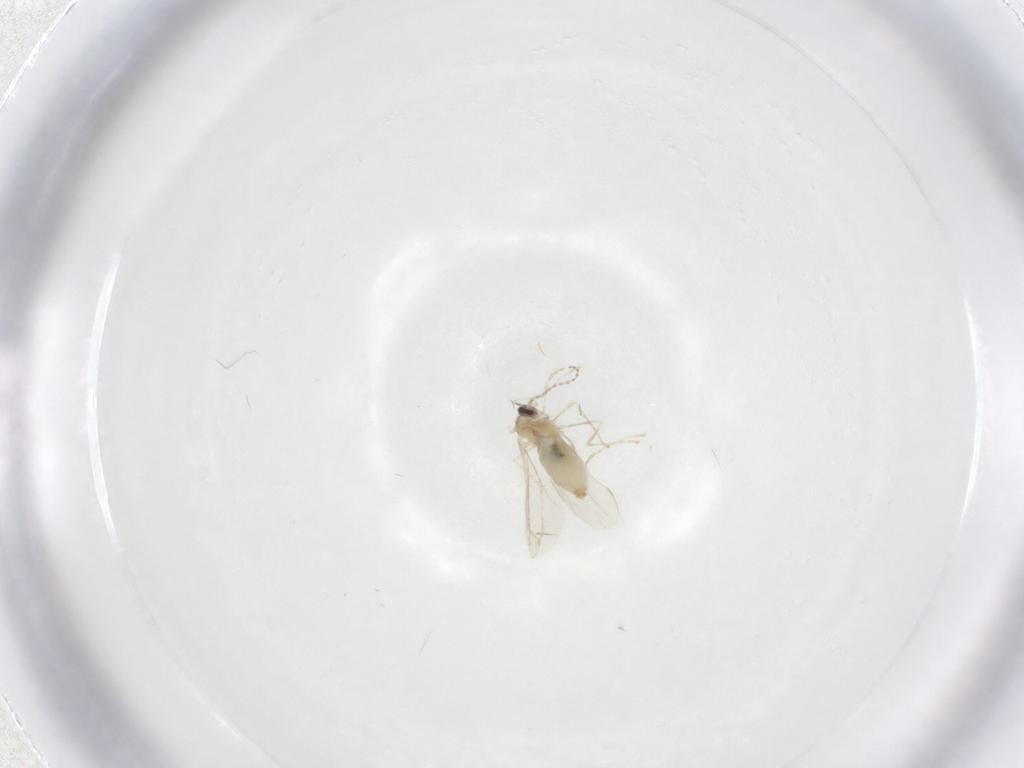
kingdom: Animalia
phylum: Arthropoda
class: Insecta
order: Diptera
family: Cecidomyiidae
